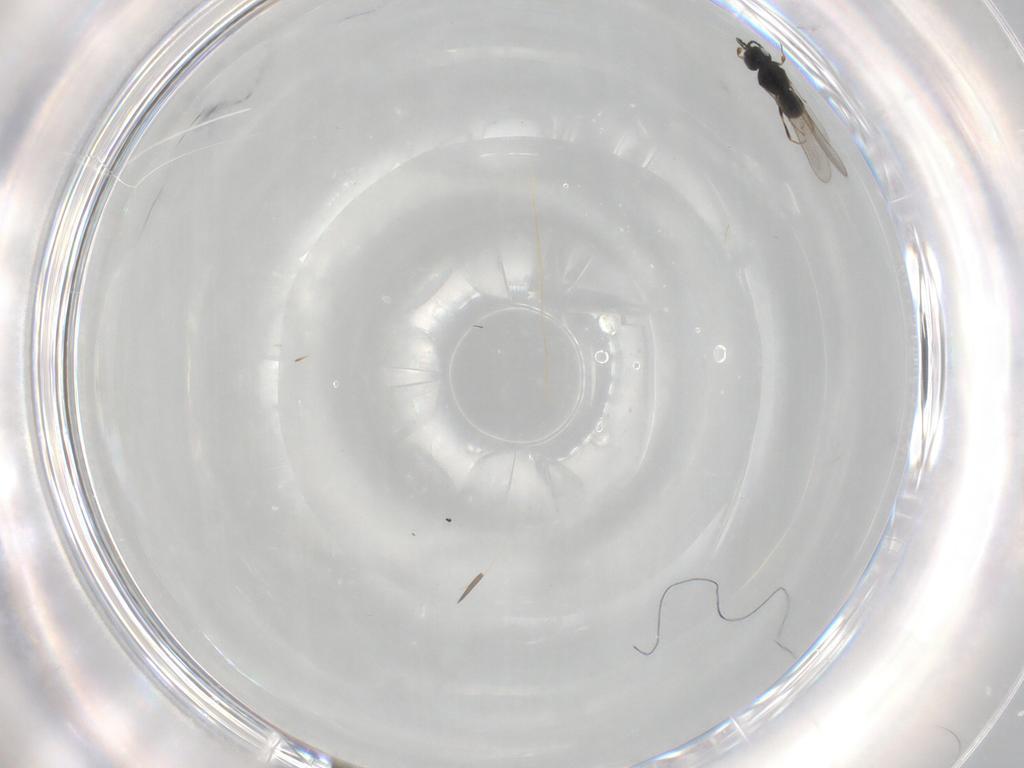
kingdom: Animalia
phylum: Arthropoda
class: Insecta
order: Hymenoptera
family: Scelionidae
